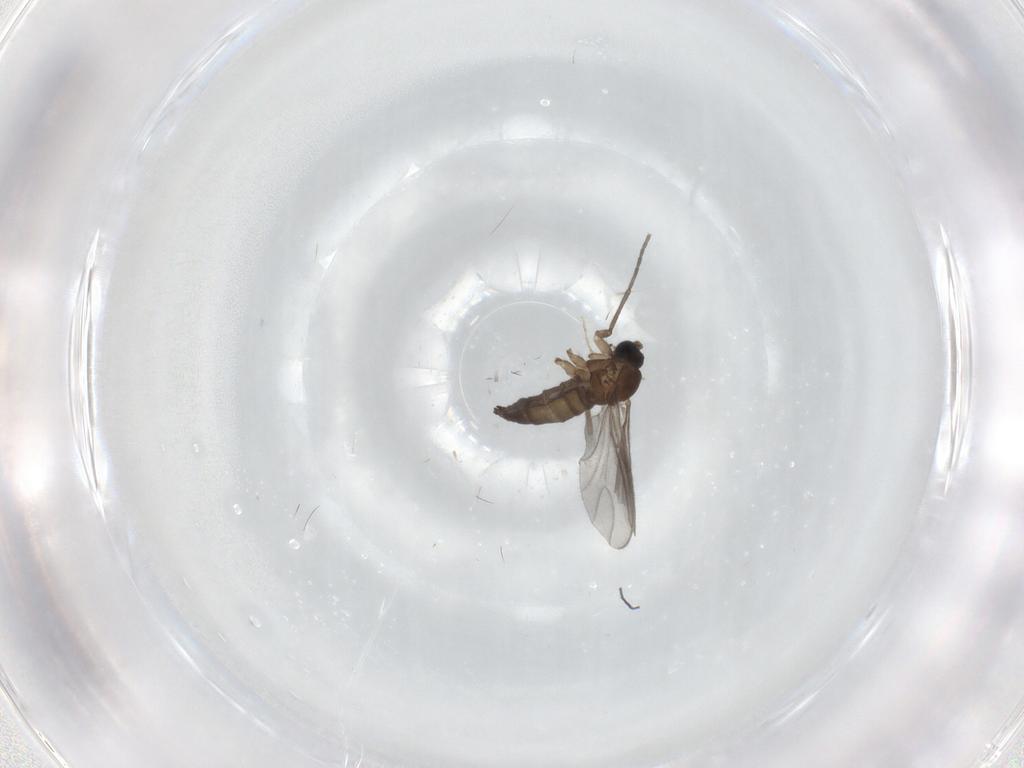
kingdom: Animalia
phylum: Arthropoda
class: Insecta
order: Diptera
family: Sciaridae
